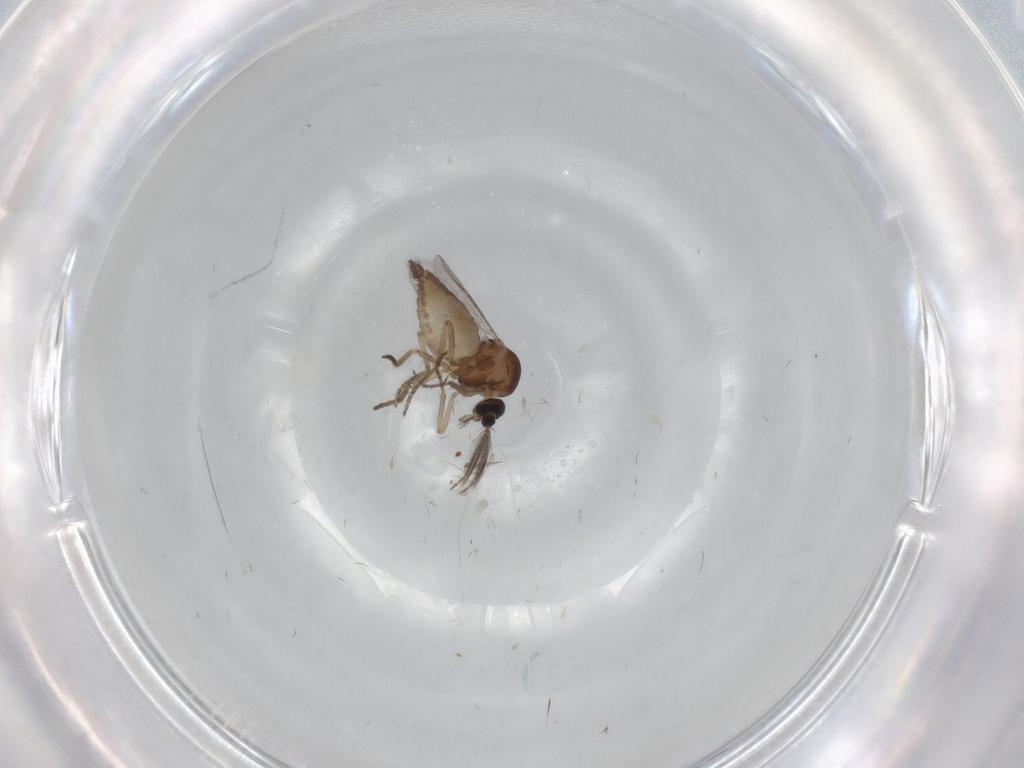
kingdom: Animalia
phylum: Arthropoda
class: Insecta
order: Diptera
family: Ceratopogonidae
